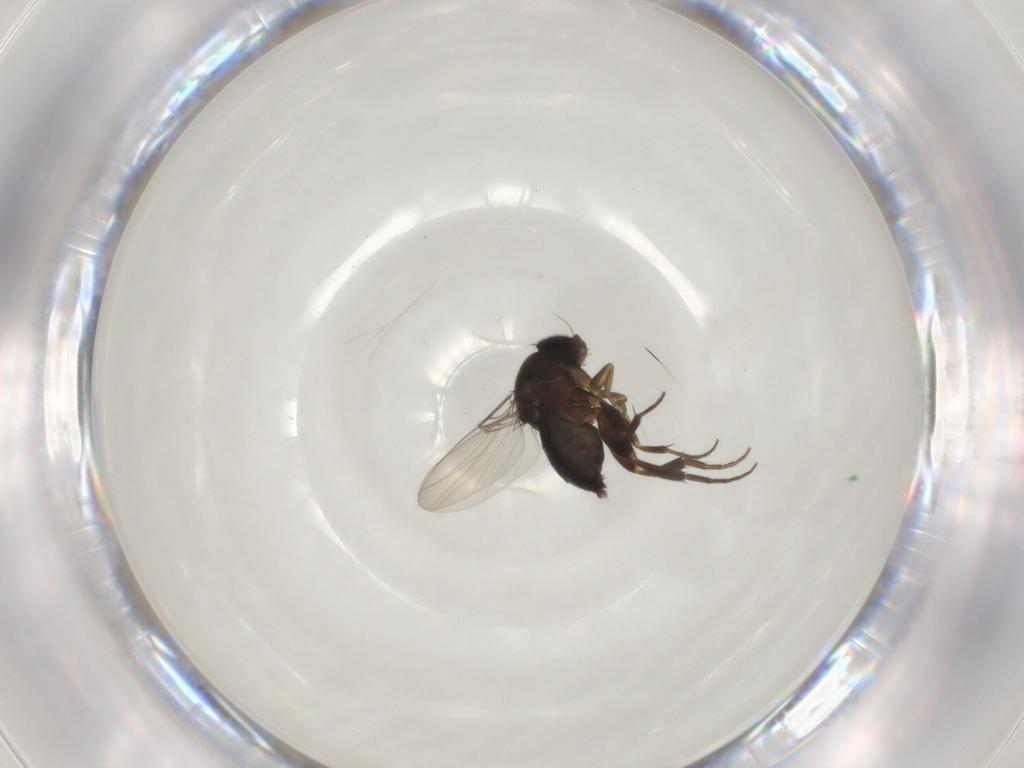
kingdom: Animalia
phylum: Arthropoda
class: Insecta
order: Diptera
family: Phoridae
